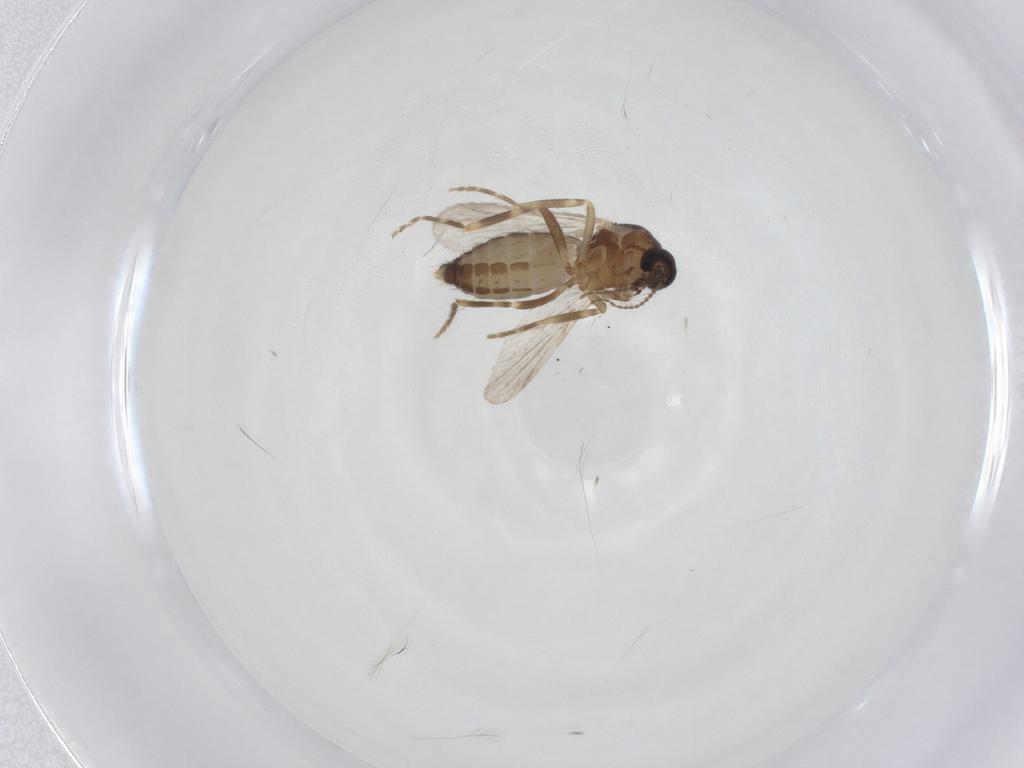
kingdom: Animalia
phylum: Arthropoda
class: Insecta
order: Diptera
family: Ceratopogonidae
